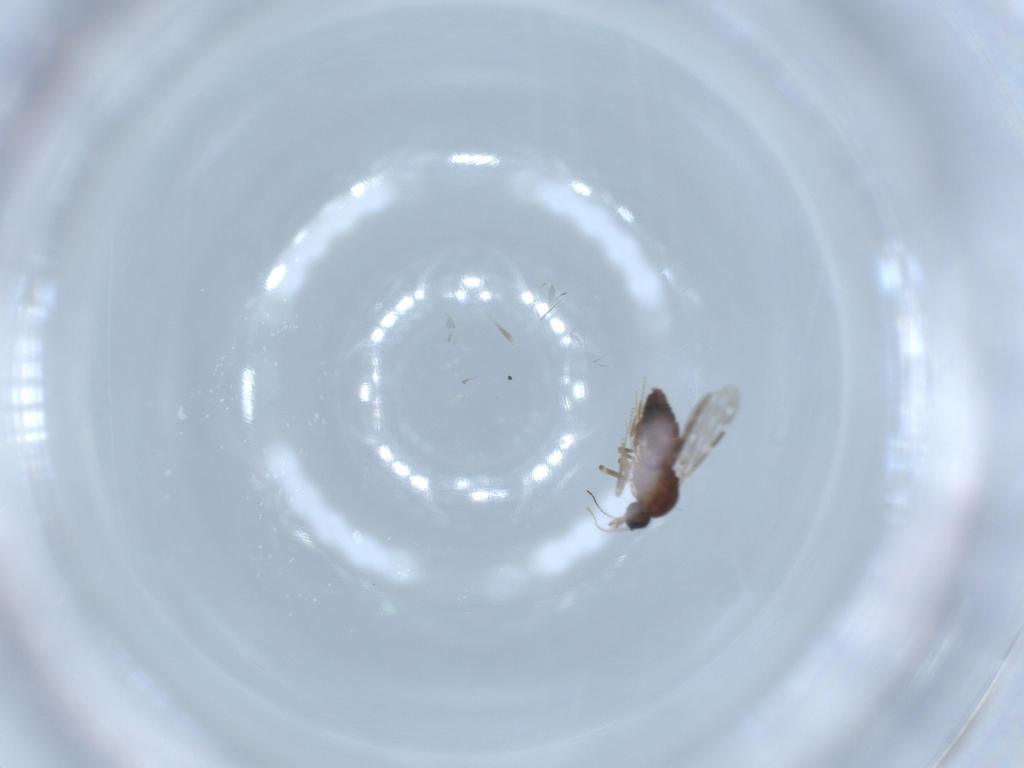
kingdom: Animalia
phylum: Arthropoda
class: Insecta
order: Diptera
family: Ceratopogonidae
